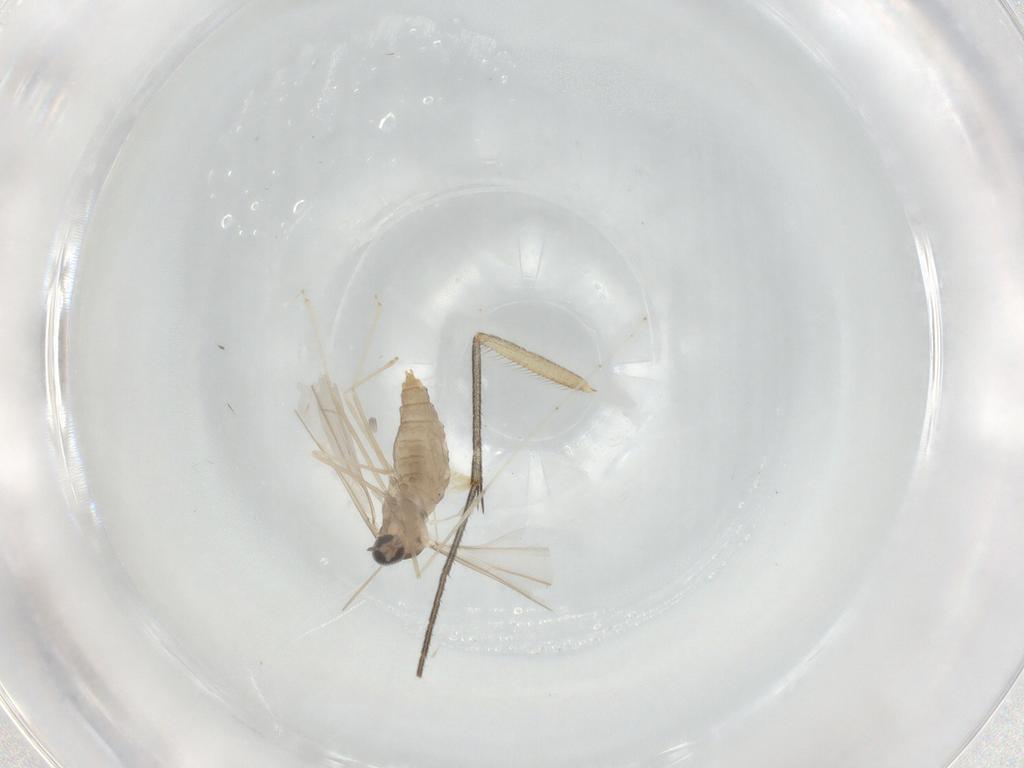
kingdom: Animalia
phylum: Arthropoda
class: Insecta
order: Diptera
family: Cecidomyiidae
